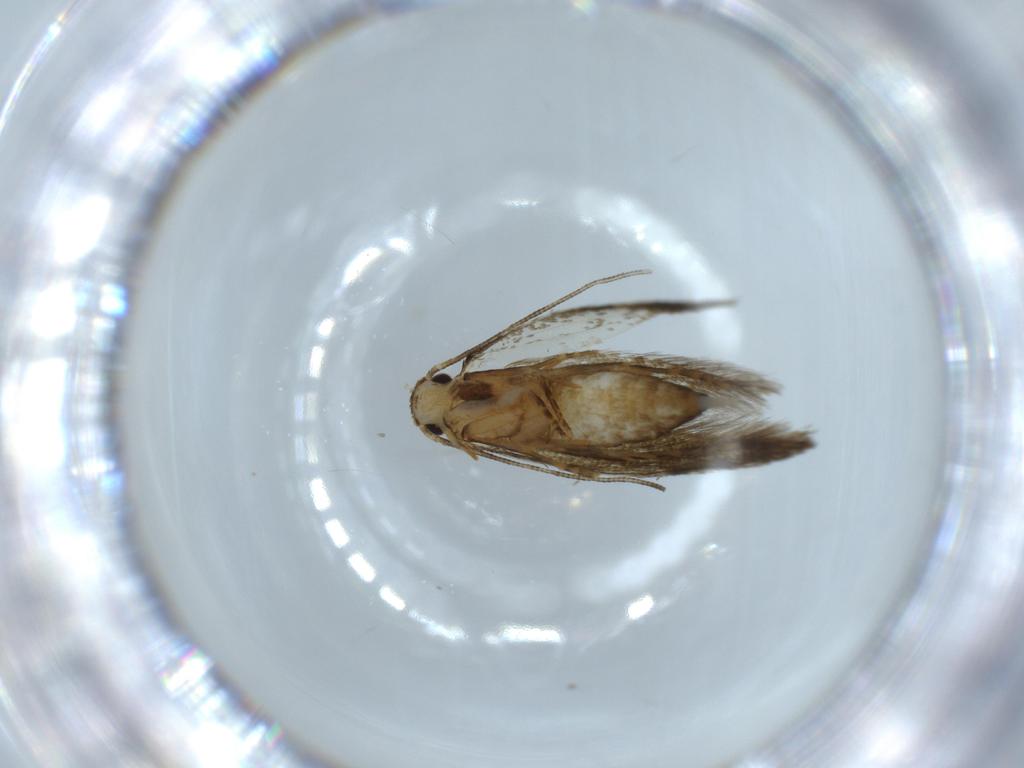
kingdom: Animalia
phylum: Arthropoda
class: Insecta
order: Lepidoptera
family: Tineidae
